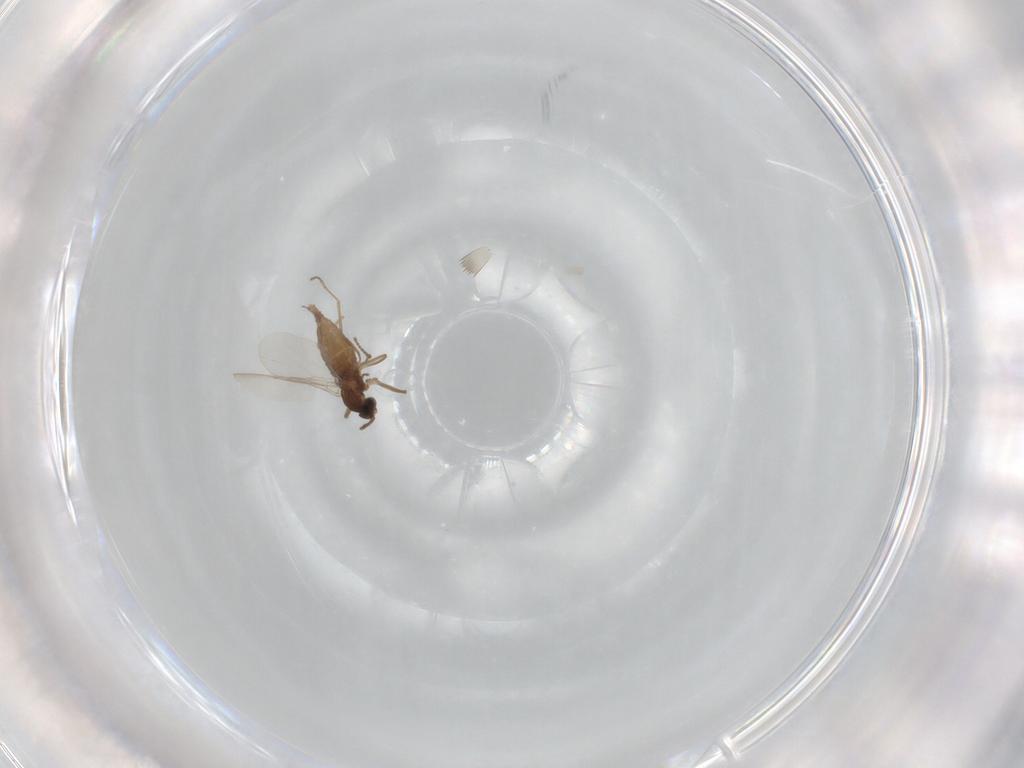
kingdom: Animalia
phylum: Arthropoda
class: Insecta
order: Diptera
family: Cecidomyiidae
